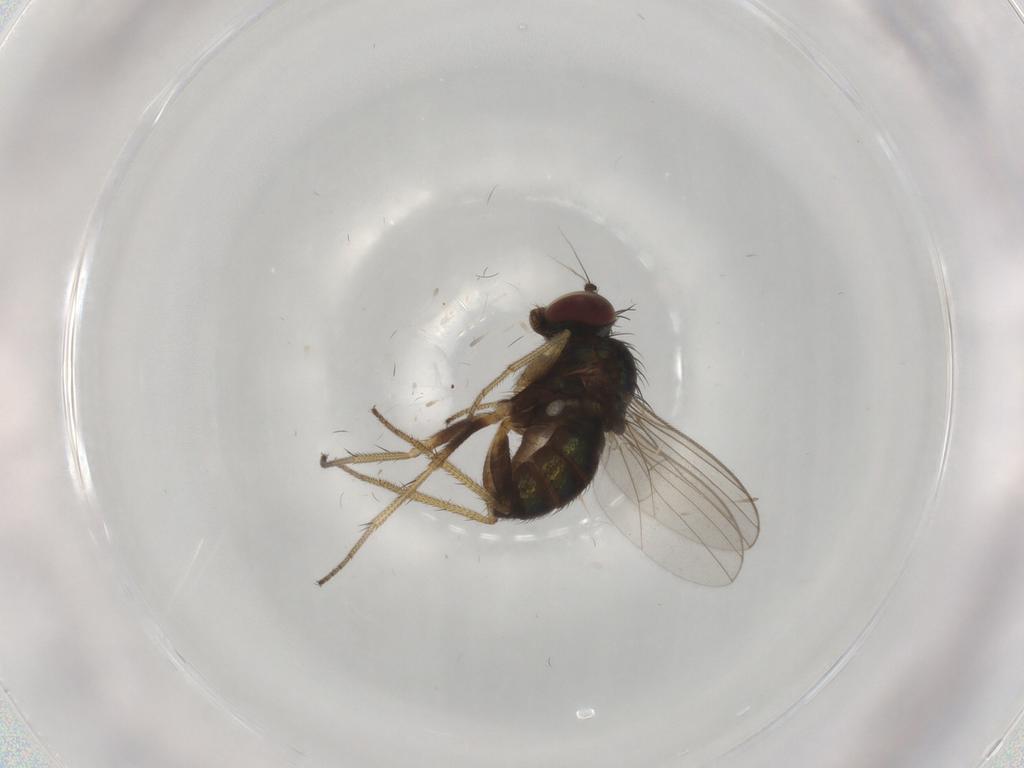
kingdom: Animalia
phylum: Arthropoda
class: Insecta
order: Diptera
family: Dolichopodidae
